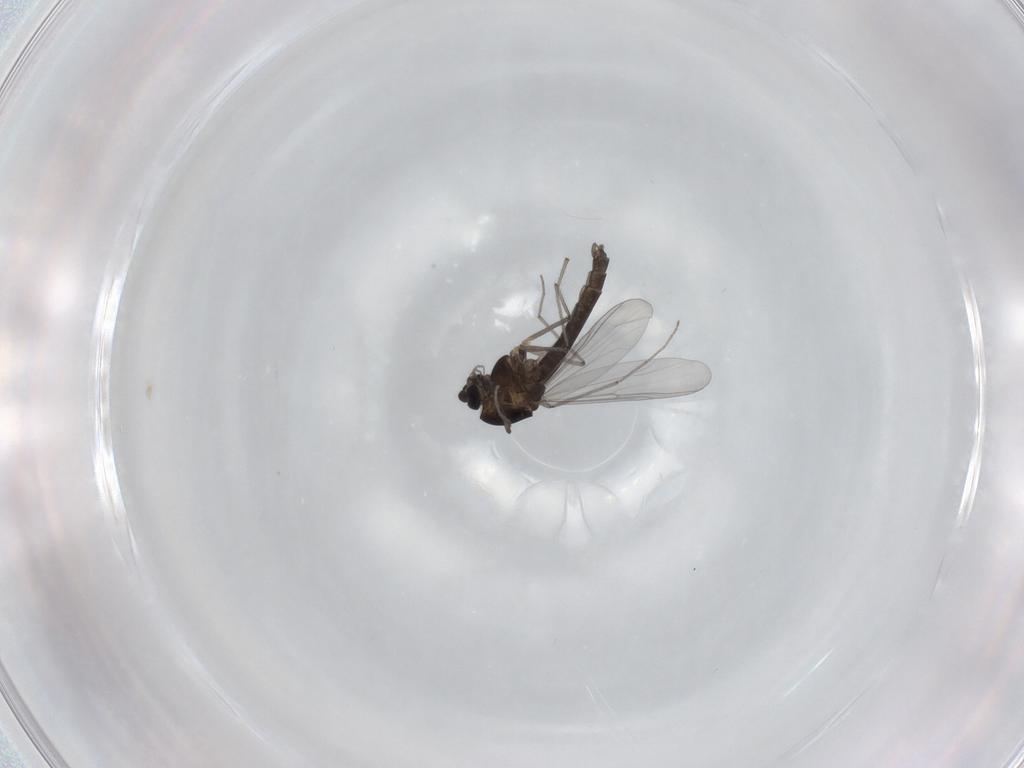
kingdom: Animalia
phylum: Arthropoda
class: Insecta
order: Diptera
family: Chironomidae
